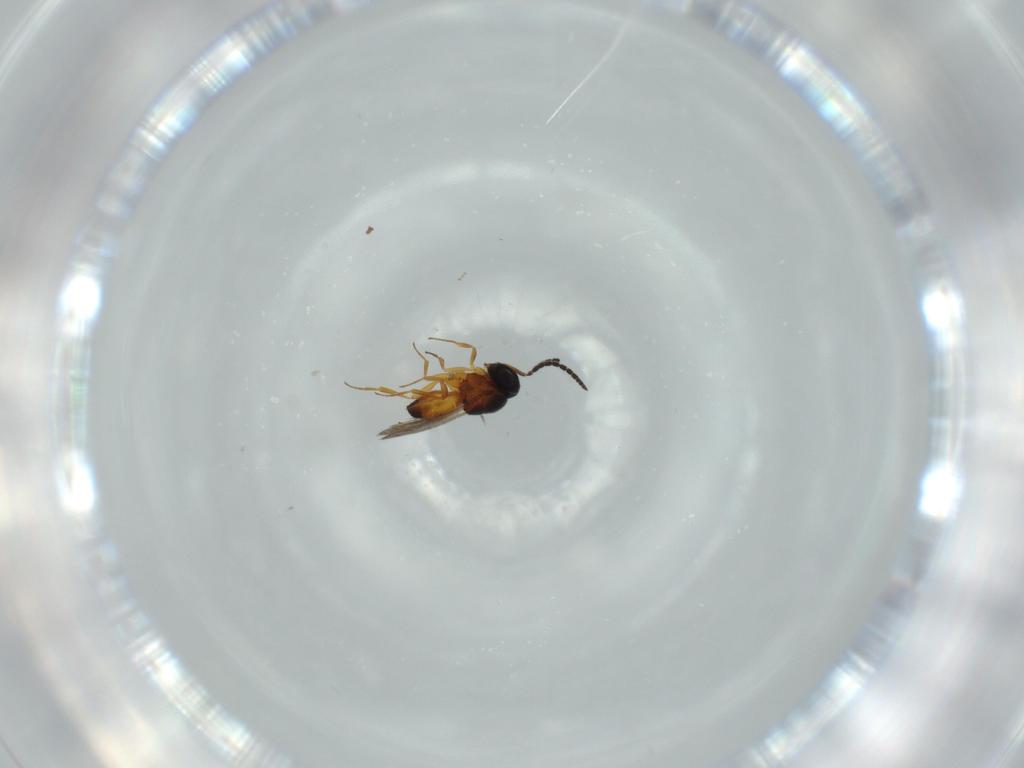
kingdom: Animalia
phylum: Arthropoda
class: Insecta
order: Hymenoptera
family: Scelionidae
